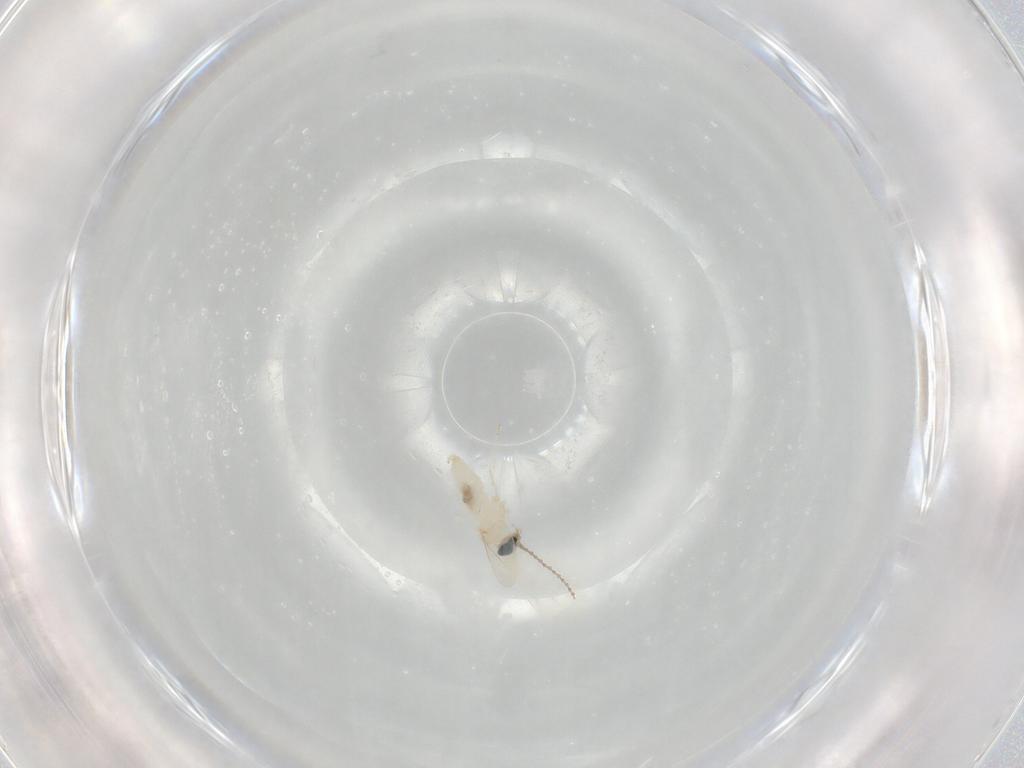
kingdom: Animalia
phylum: Arthropoda
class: Insecta
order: Diptera
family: Cecidomyiidae
